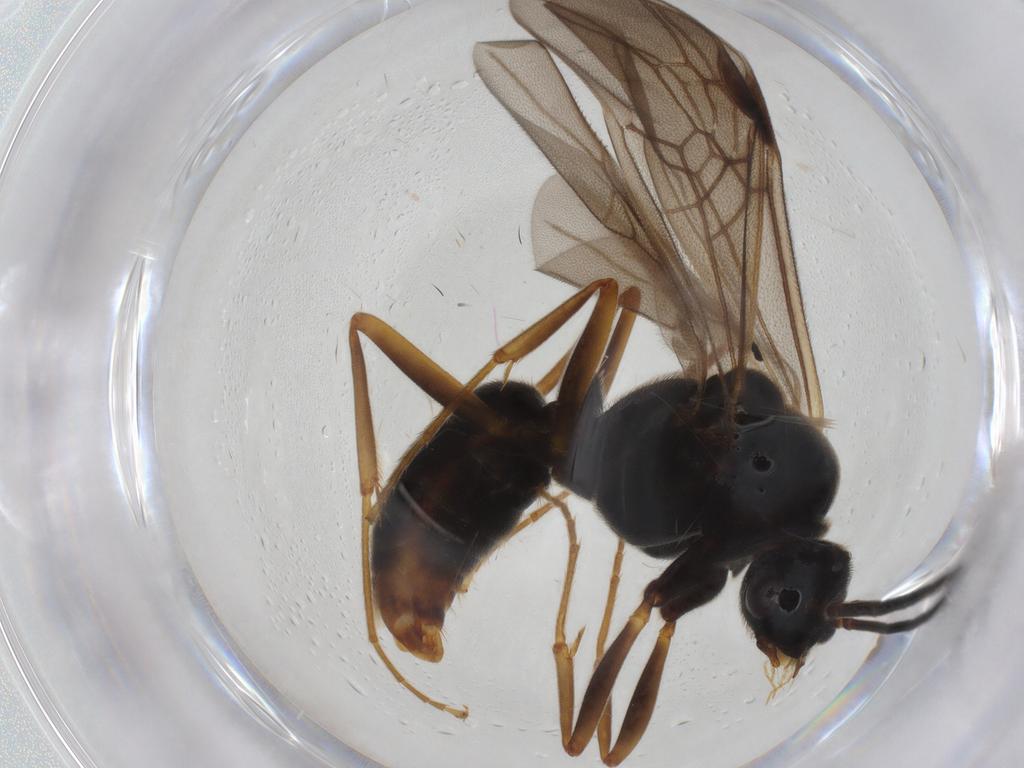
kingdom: Animalia
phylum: Arthropoda
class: Insecta
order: Hymenoptera
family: Formicidae
